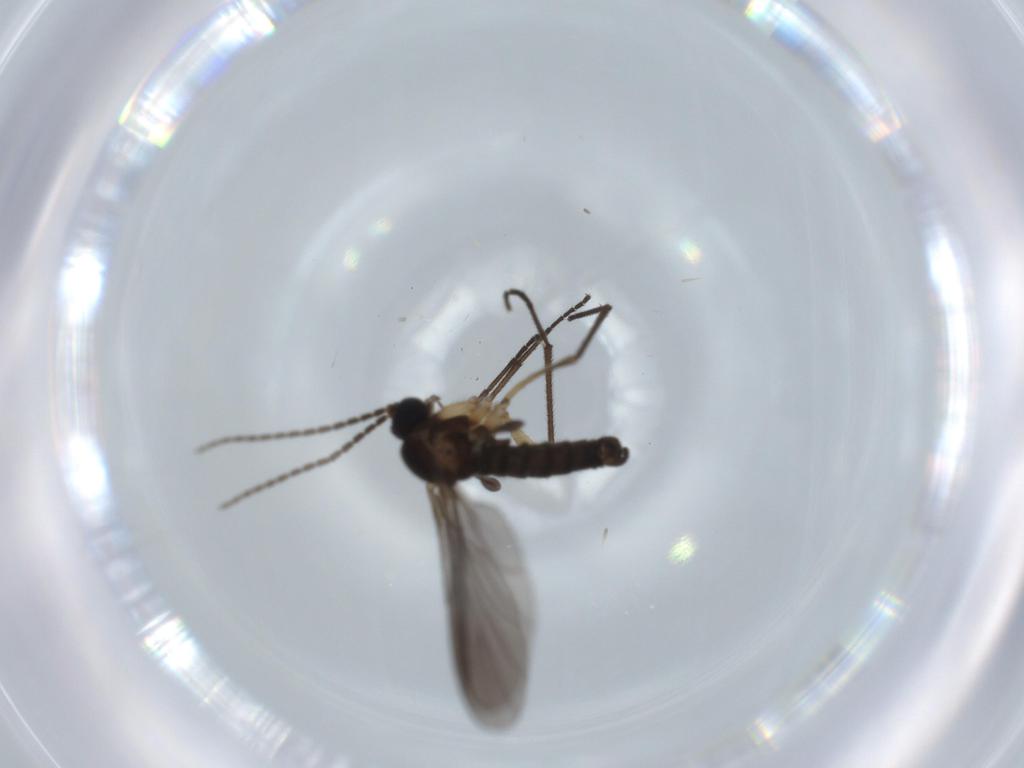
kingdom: Animalia
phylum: Arthropoda
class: Insecta
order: Diptera
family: Sciaridae
